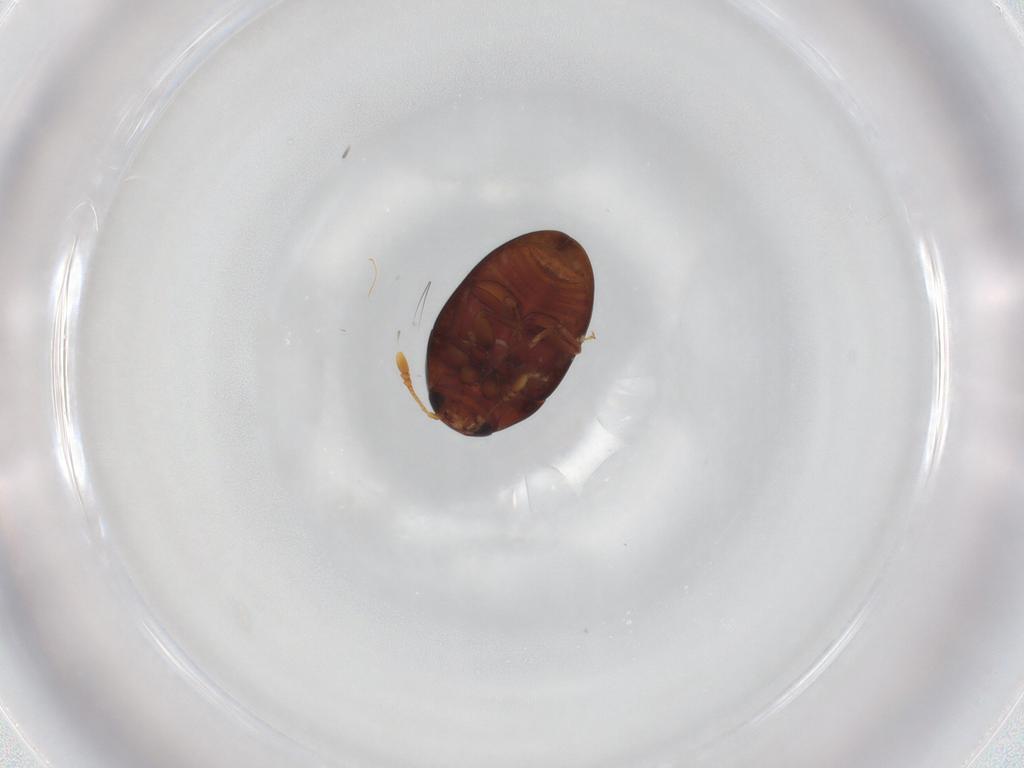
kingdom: Animalia
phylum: Arthropoda
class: Insecta
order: Coleoptera
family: Phalacridae
